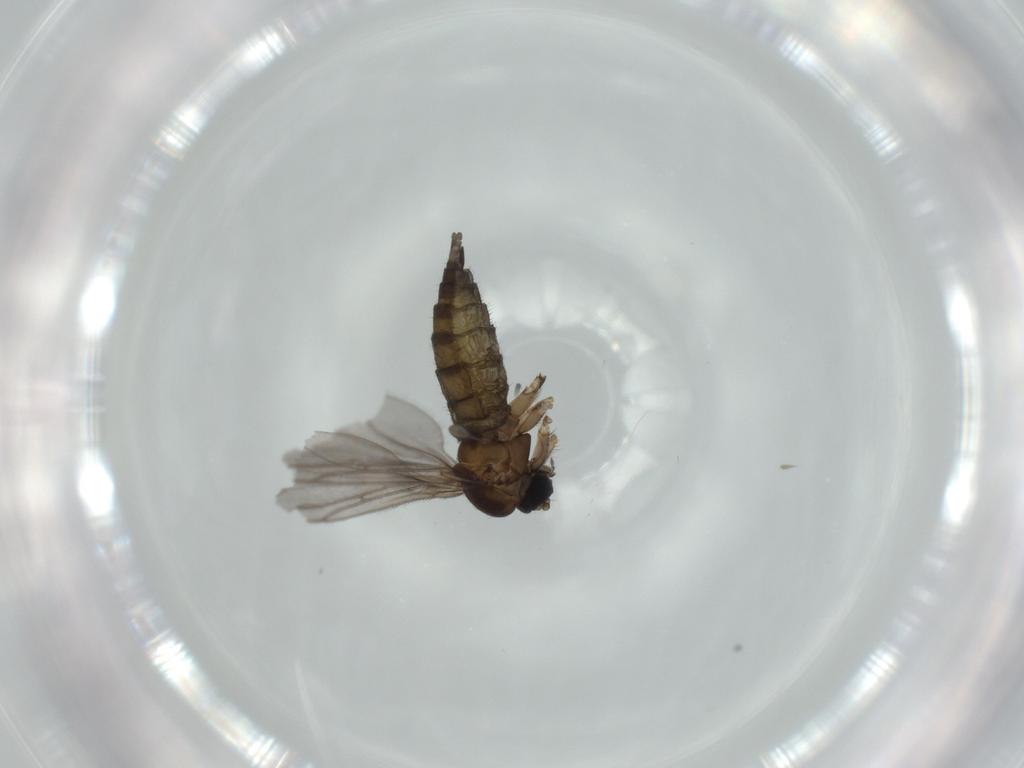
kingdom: Animalia
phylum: Arthropoda
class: Insecta
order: Diptera
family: Sciaridae
